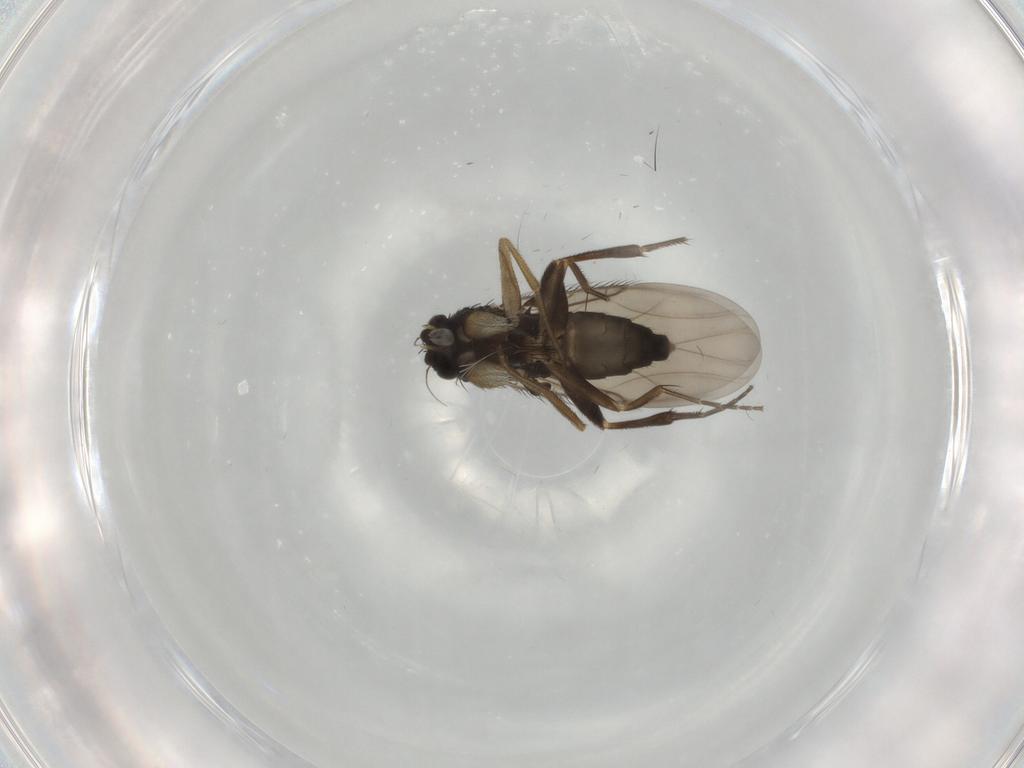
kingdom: Animalia
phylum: Arthropoda
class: Insecta
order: Diptera
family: Phoridae
